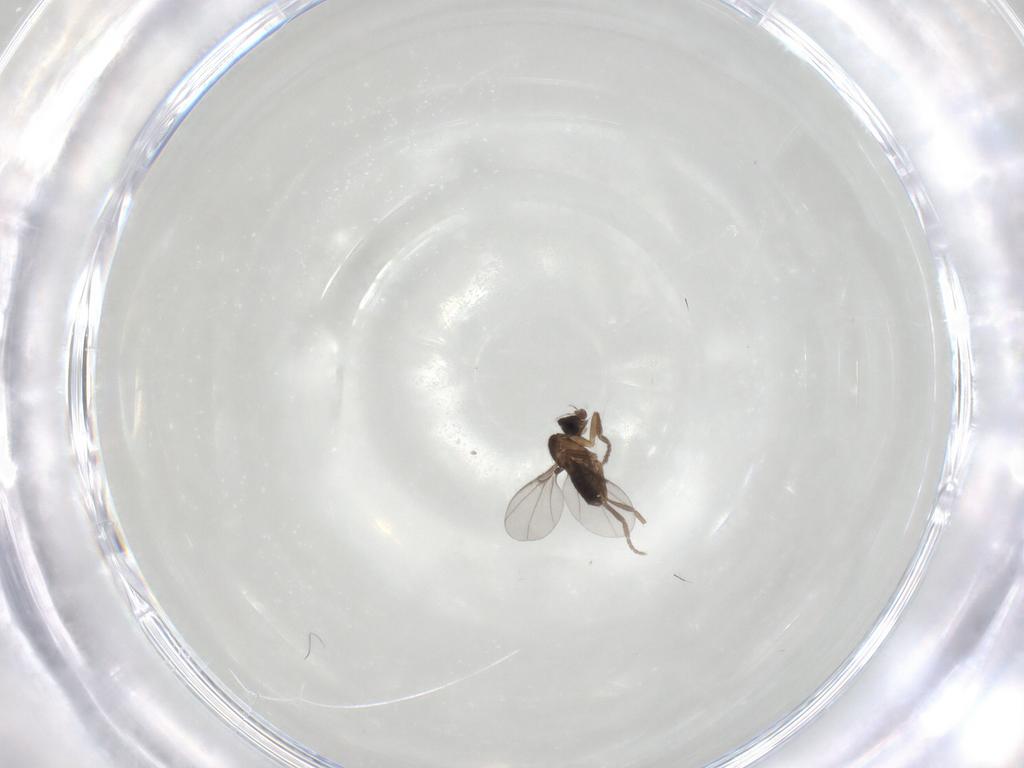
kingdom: Animalia
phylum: Arthropoda
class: Insecta
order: Diptera
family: Phoridae
